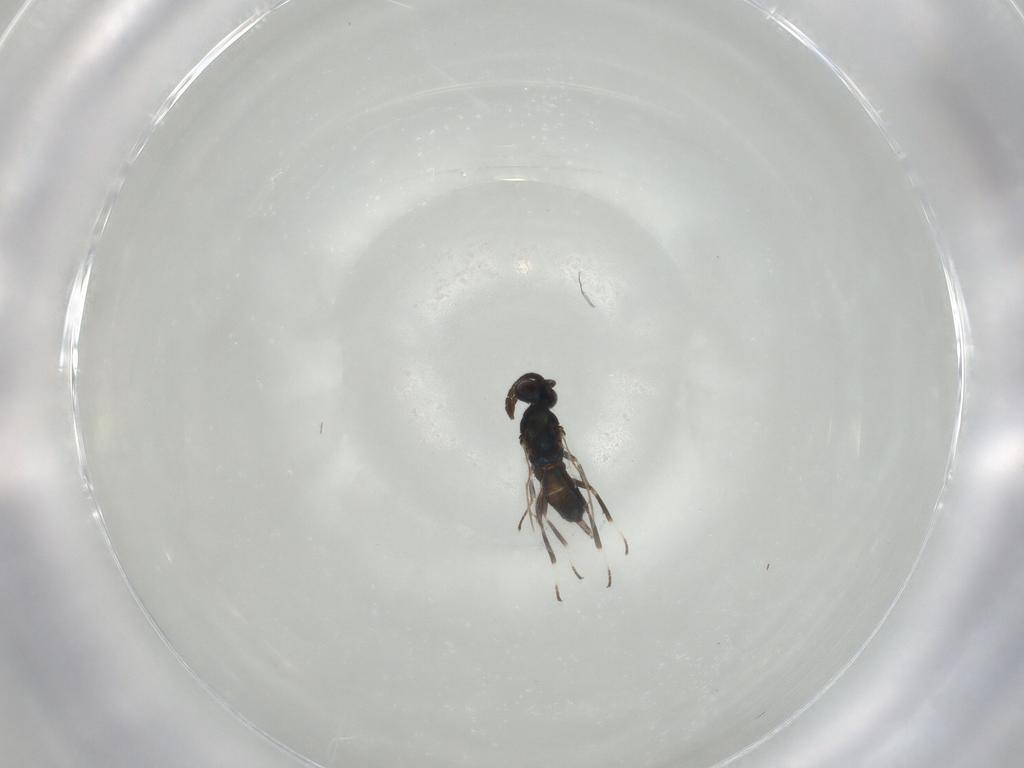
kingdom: Animalia
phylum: Arthropoda
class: Insecta
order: Hymenoptera
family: Eupelmidae
